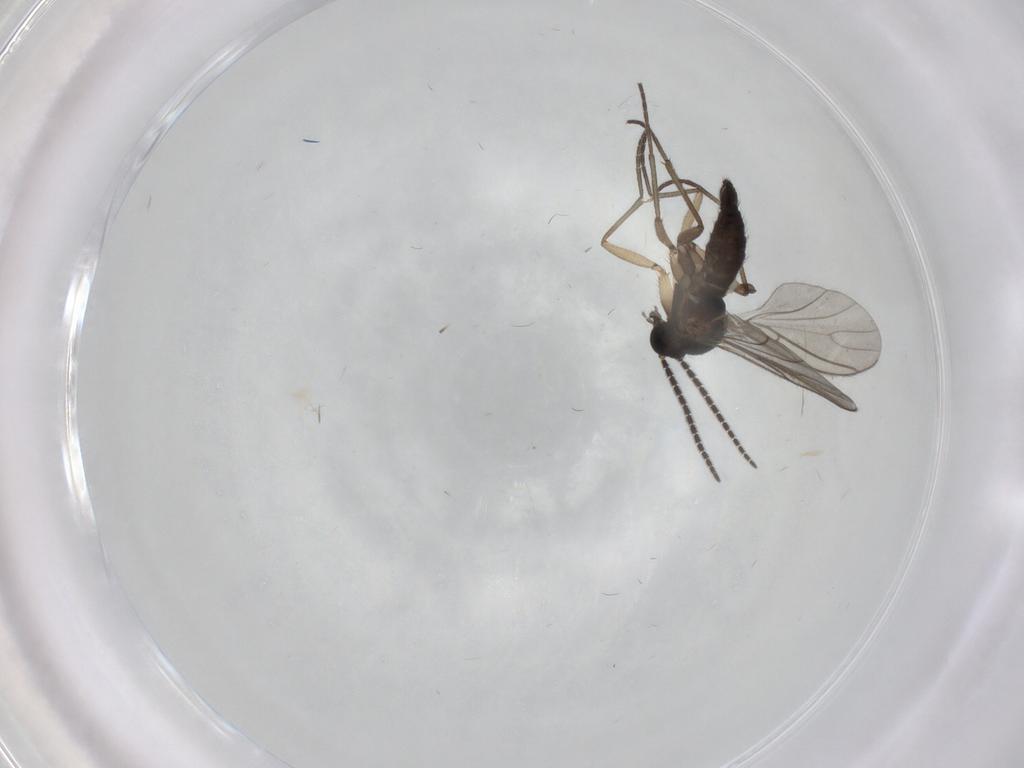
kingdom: Animalia
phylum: Arthropoda
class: Insecta
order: Diptera
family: Sciaridae
